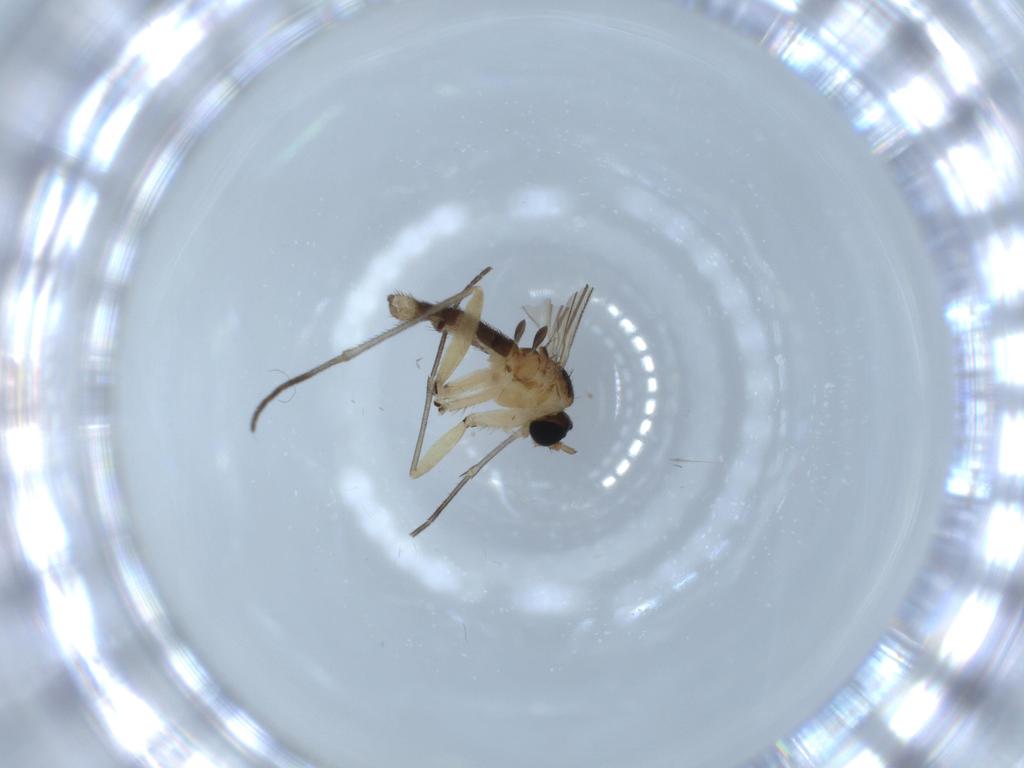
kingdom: Animalia
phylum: Arthropoda
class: Insecta
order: Diptera
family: Sciaridae
